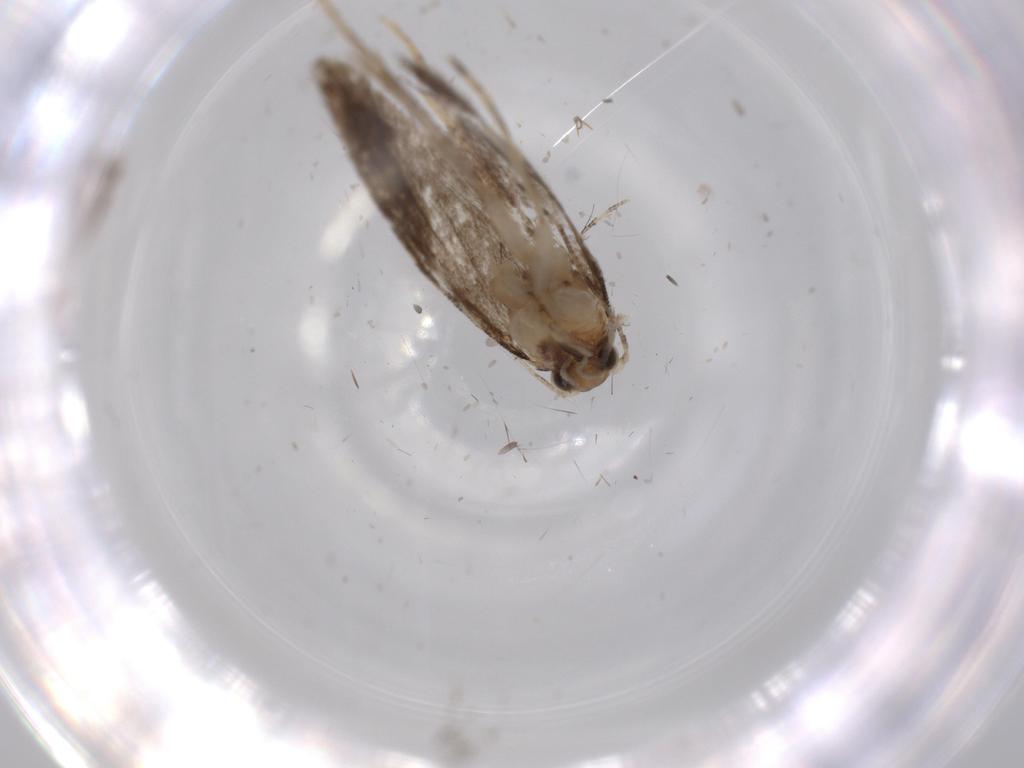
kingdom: Animalia
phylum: Arthropoda
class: Insecta
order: Lepidoptera
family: Tineidae
